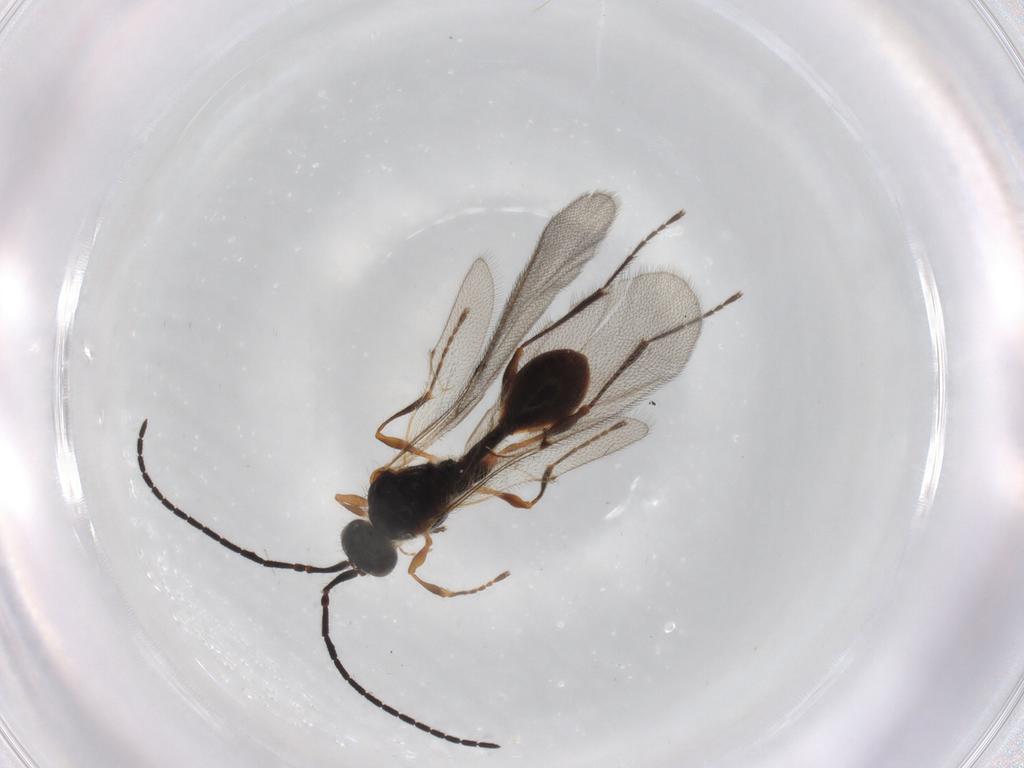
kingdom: Animalia
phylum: Arthropoda
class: Insecta
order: Hymenoptera
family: Diapriidae
